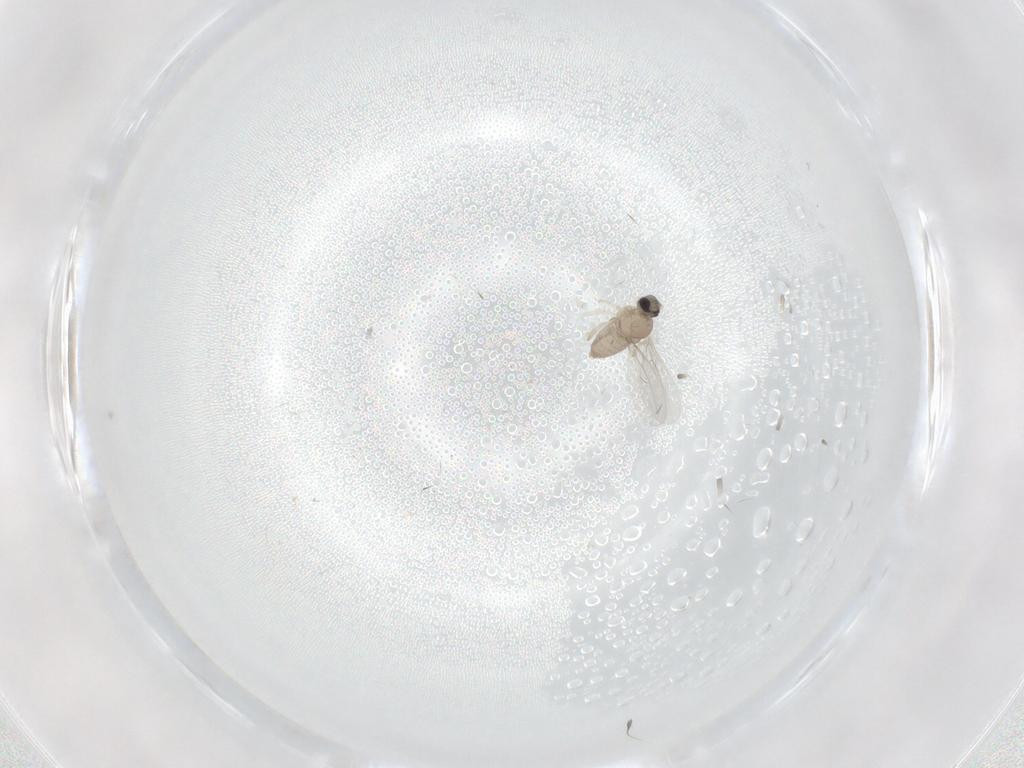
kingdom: Animalia
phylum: Arthropoda
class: Insecta
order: Diptera
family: Cecidomyiidae
